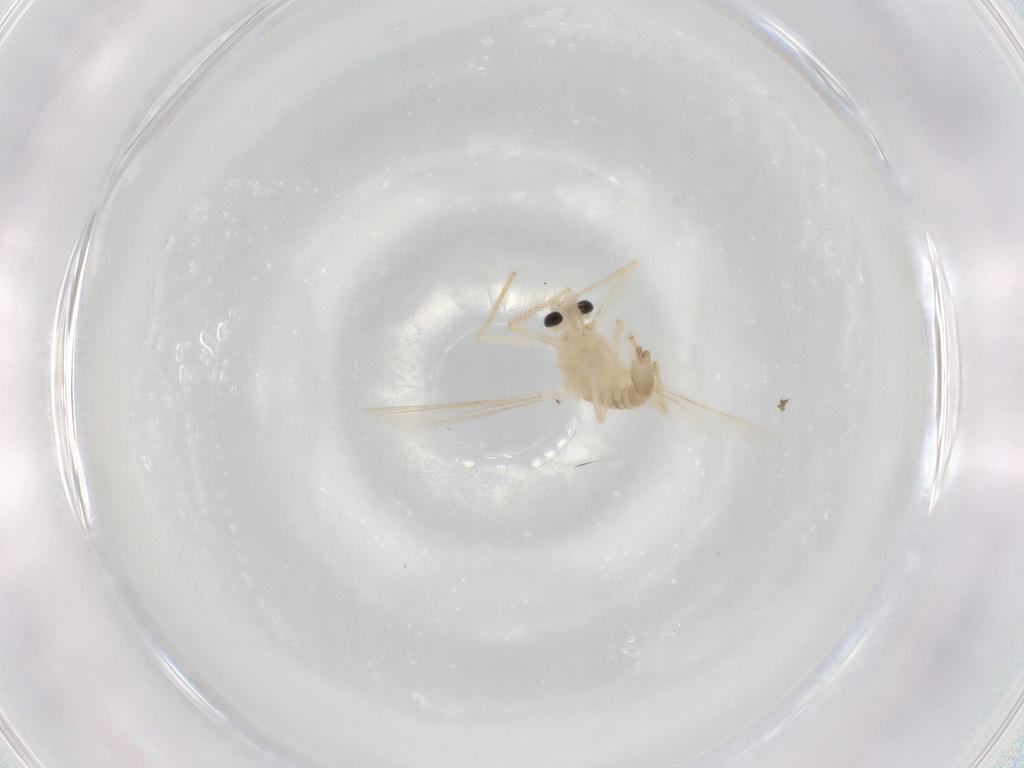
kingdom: Animalia
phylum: Arthropoda
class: Insecta
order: Diptera
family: Chironomidae
